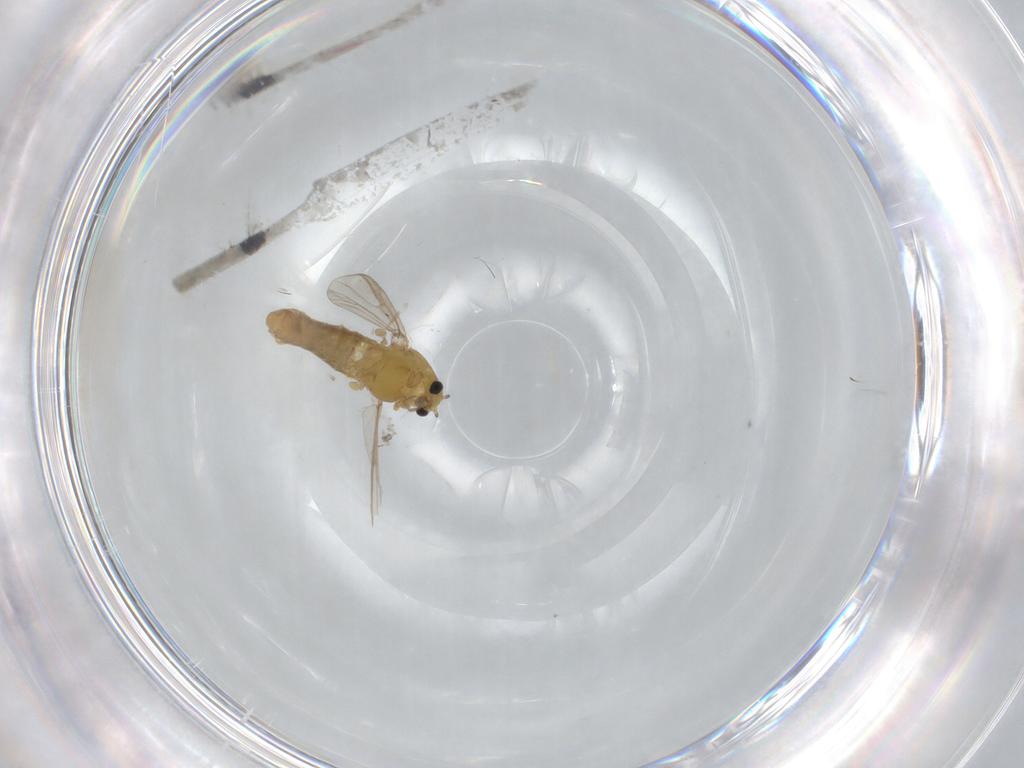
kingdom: Animalia
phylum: Arthropoda
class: Insecta
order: Diptera
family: Chironomidae
